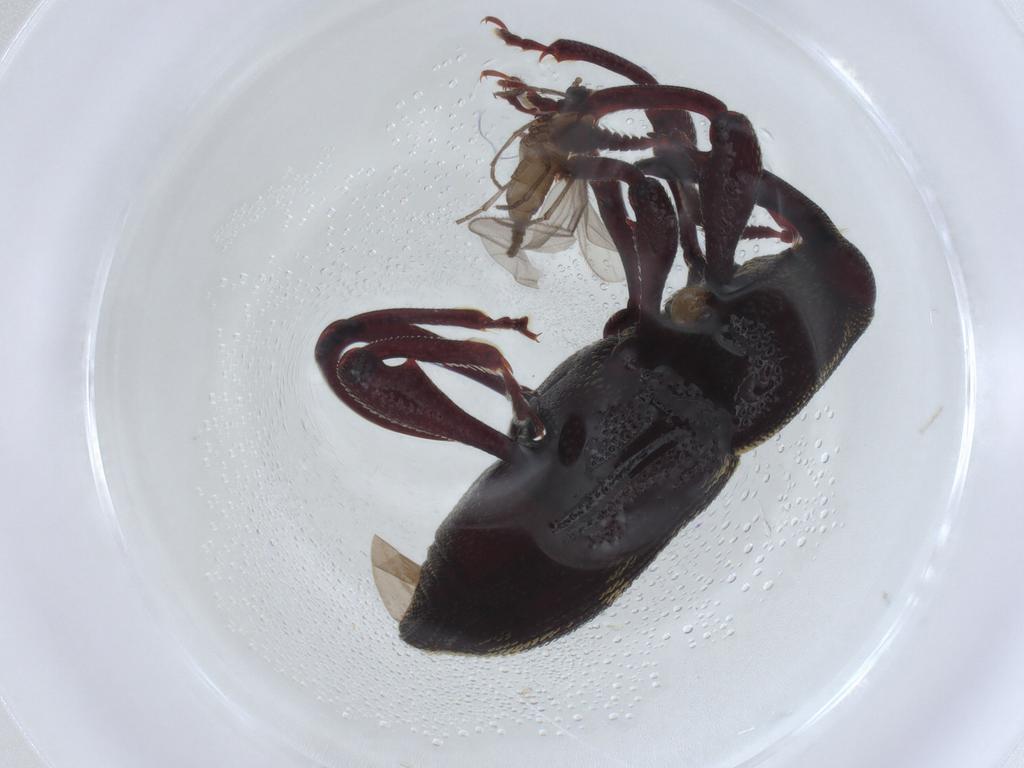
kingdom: Animalia
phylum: Arthropoda
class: Insecta
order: Diptera
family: Sciaridae
